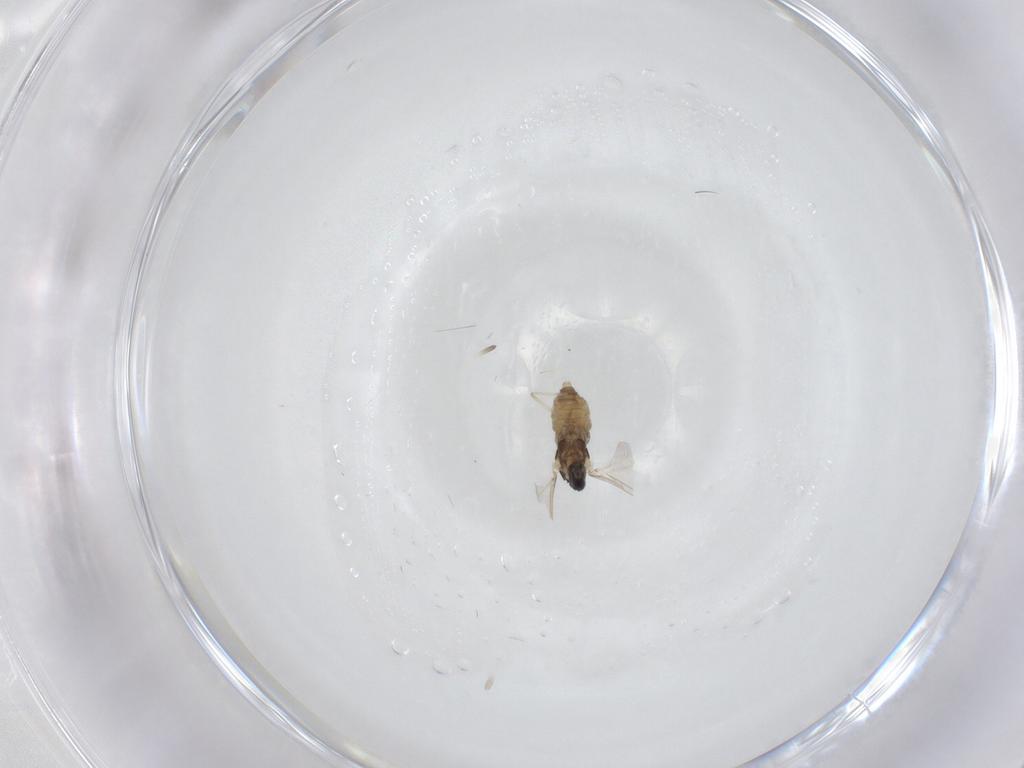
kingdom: Animalia
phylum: Arthropoda
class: Insecta
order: Diptera
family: Cecidomyiidae
